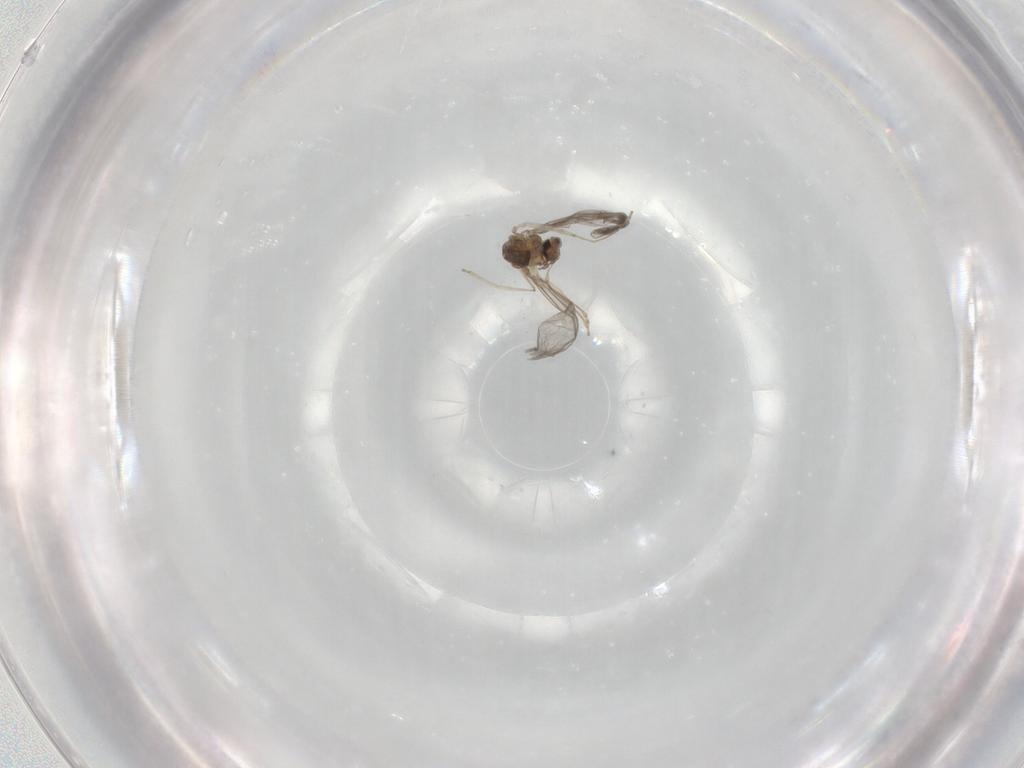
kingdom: Animalia
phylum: Arthropoda
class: Insecta
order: Diptera
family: Cecidomyiidae
